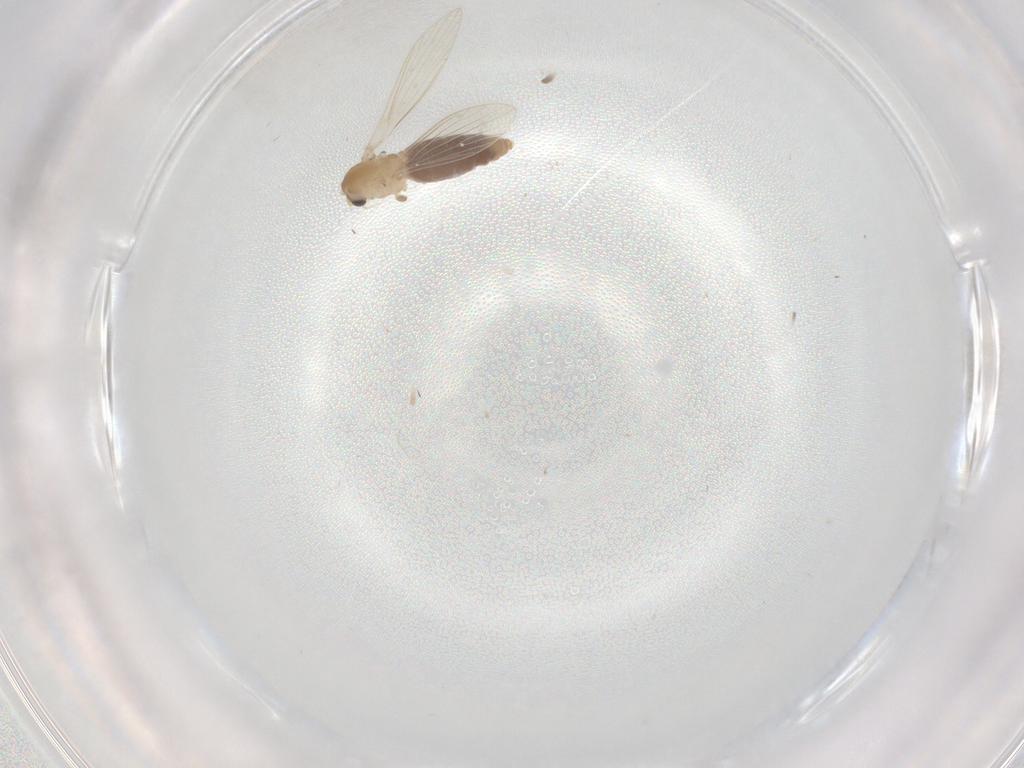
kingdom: Animalia
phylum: Arthropoda
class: Insecta
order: Diptera
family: Psychodidae
